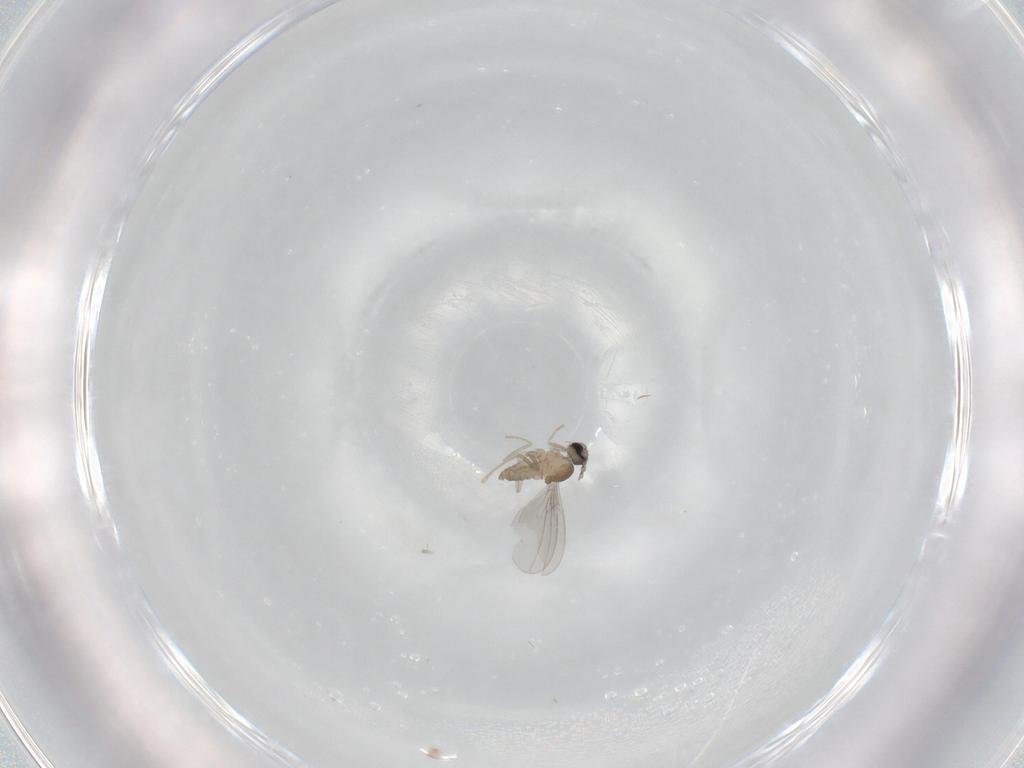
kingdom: Animalia
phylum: Arthropoda
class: Insecta
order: Diptera
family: Cecidomyiidae
